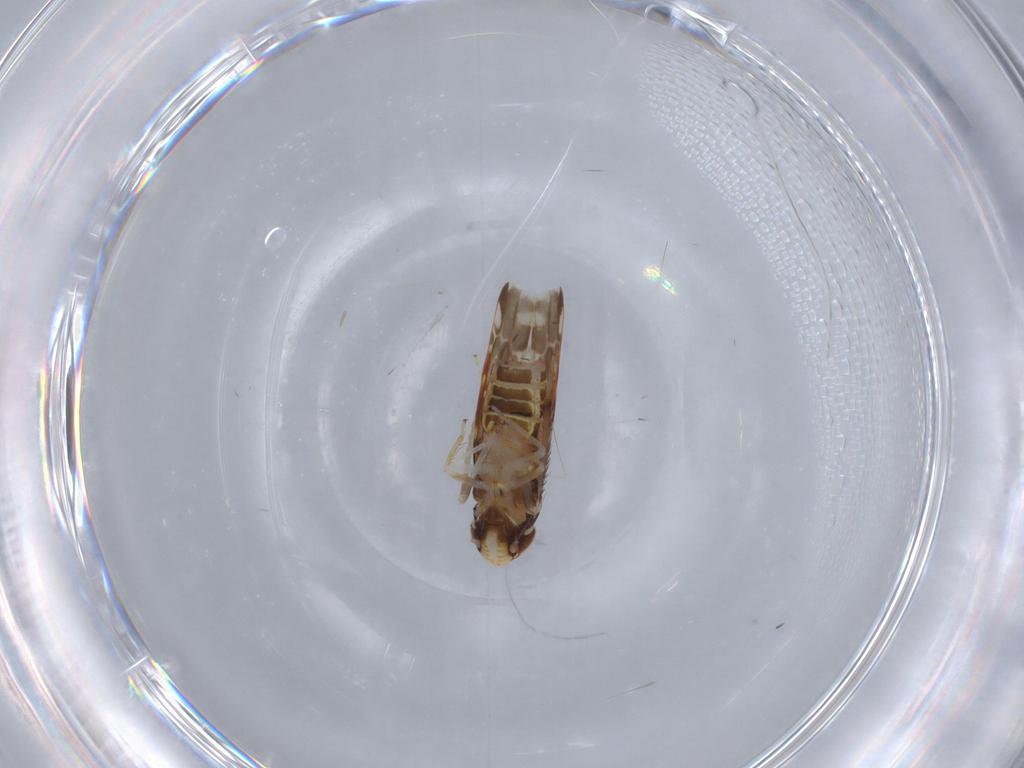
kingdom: Animalia
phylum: Arthropoda
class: Insecta
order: Hemiptera
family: Cicadellidae
